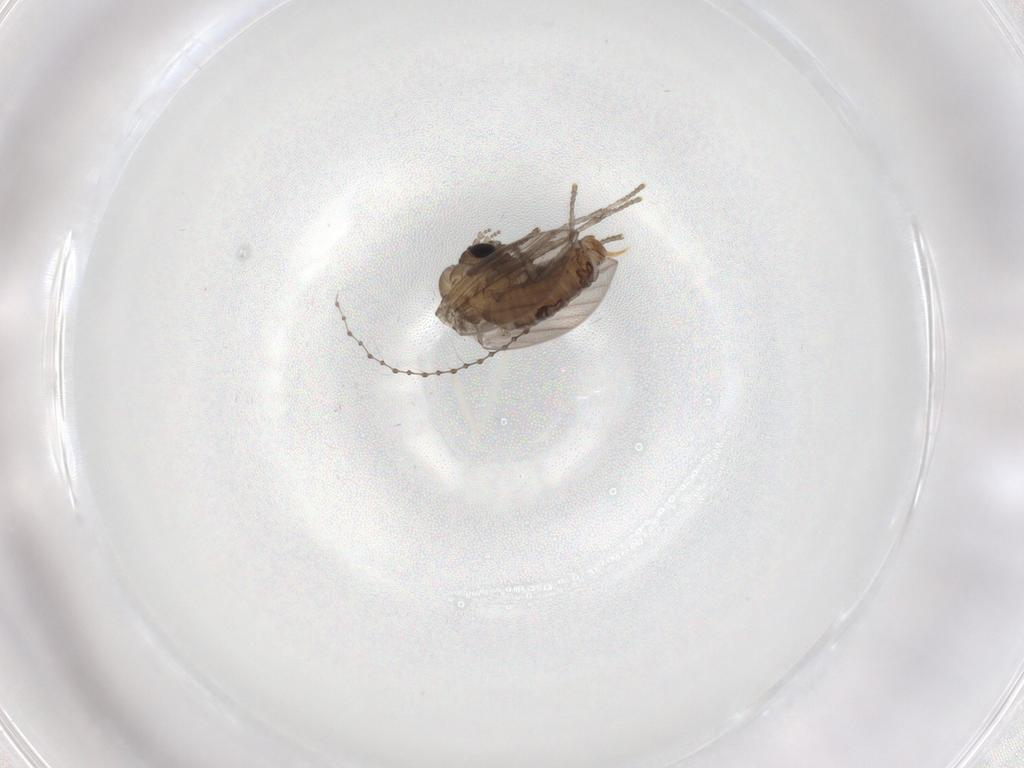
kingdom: Animalia
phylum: Arthropoda
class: Insecta
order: Diptera
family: Psychodidae
